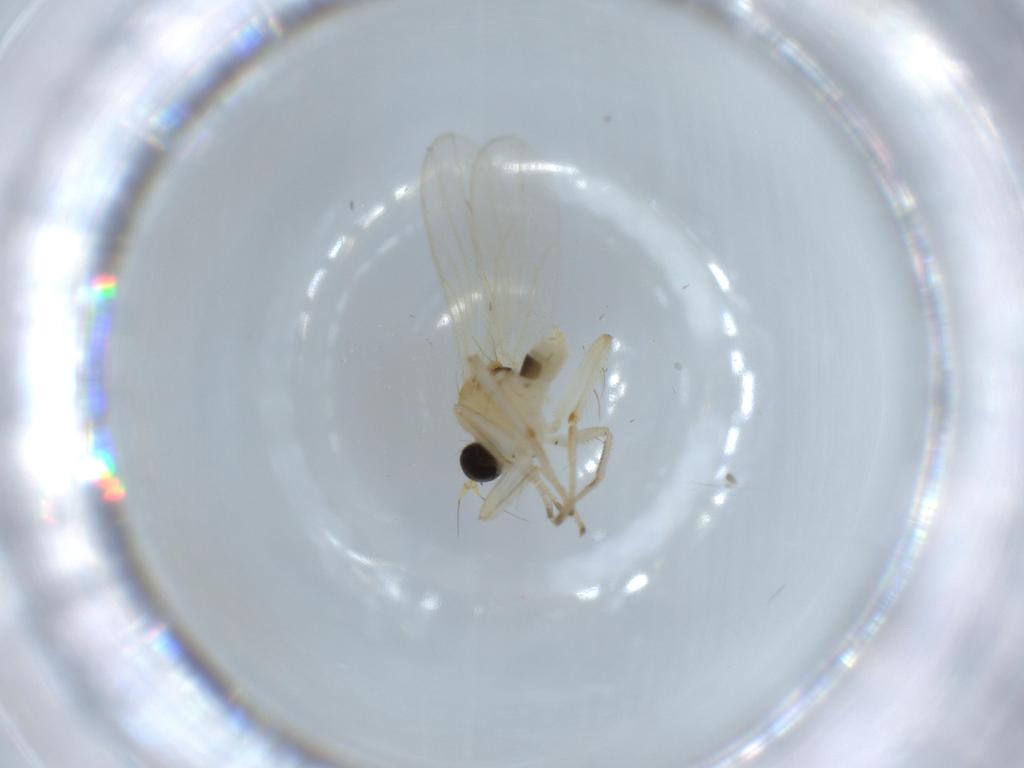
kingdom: Animalia
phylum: Arthropoda
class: Insecta
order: Diptera
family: Hybotidae
